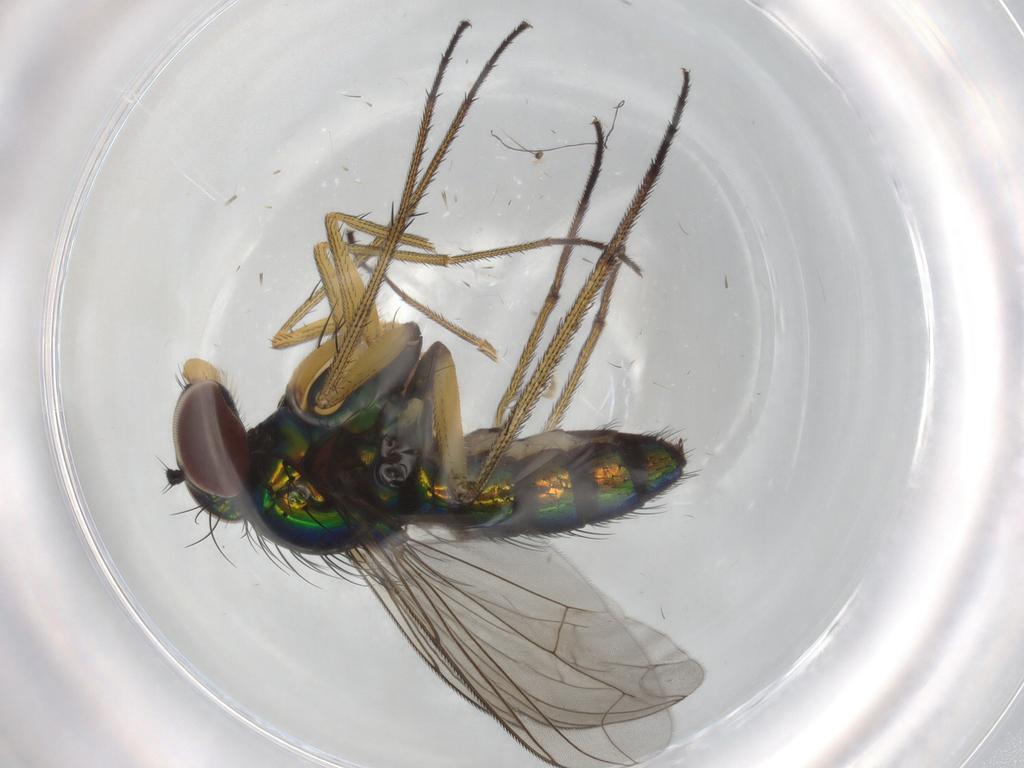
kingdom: Animalia
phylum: Arthropoda
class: Insecta
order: Diptera
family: Dolichopodidae
